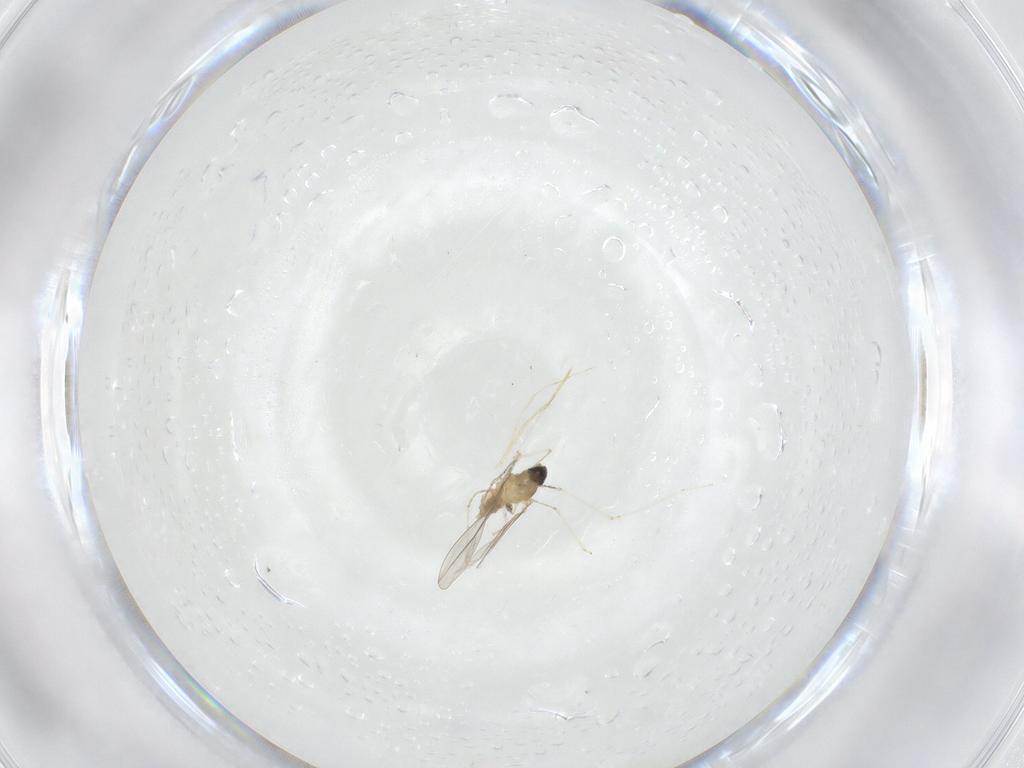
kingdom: Animalia
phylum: Arthropoda
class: Insecta
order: Diptera
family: Cecidomyiidae
